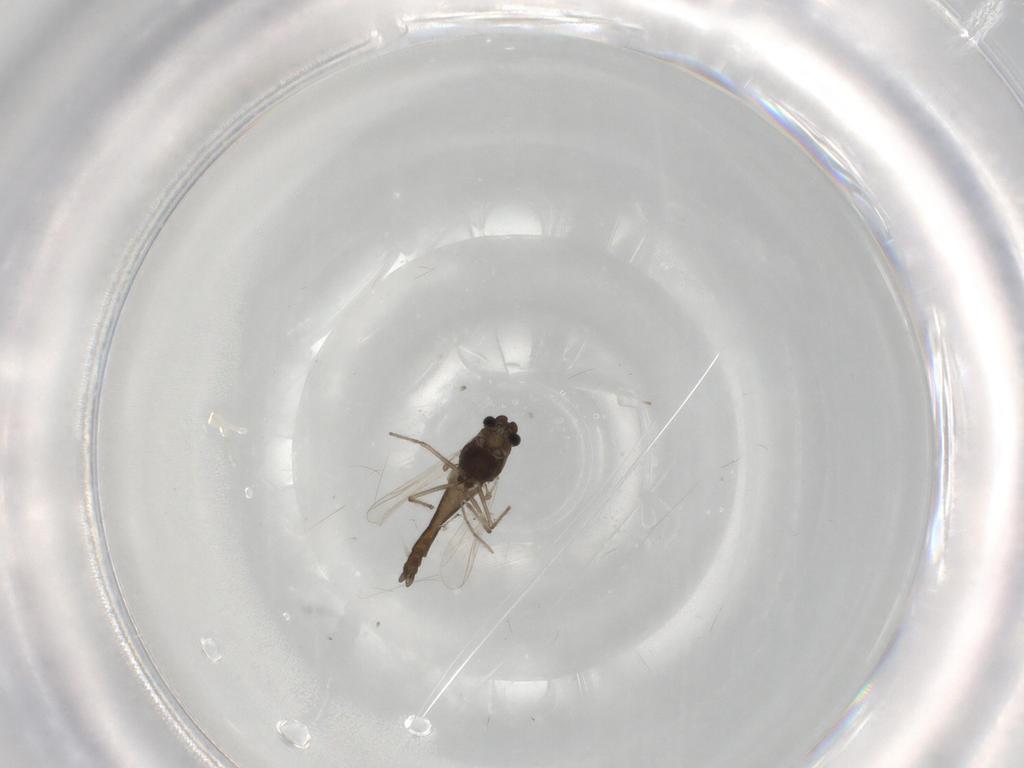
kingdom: Animalia
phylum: Arthropoda
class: Insecta
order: Diptera
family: Chironomidae
